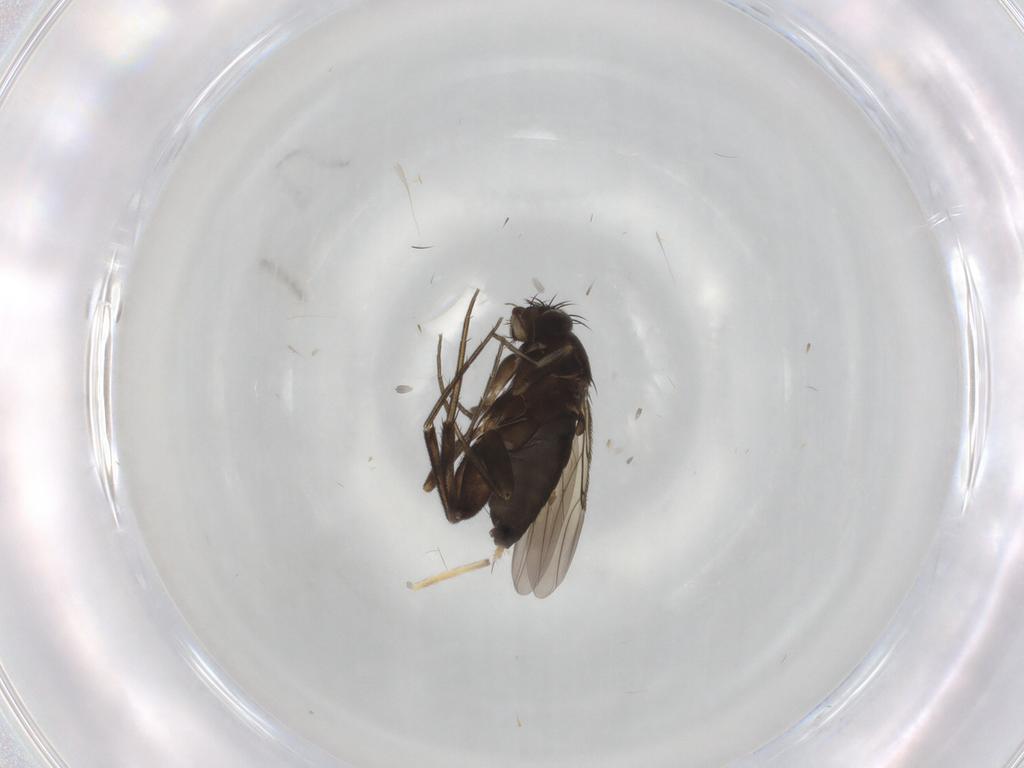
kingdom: Animalia
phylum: Arthropoda
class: Insecta
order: Diptera
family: Phoridae
